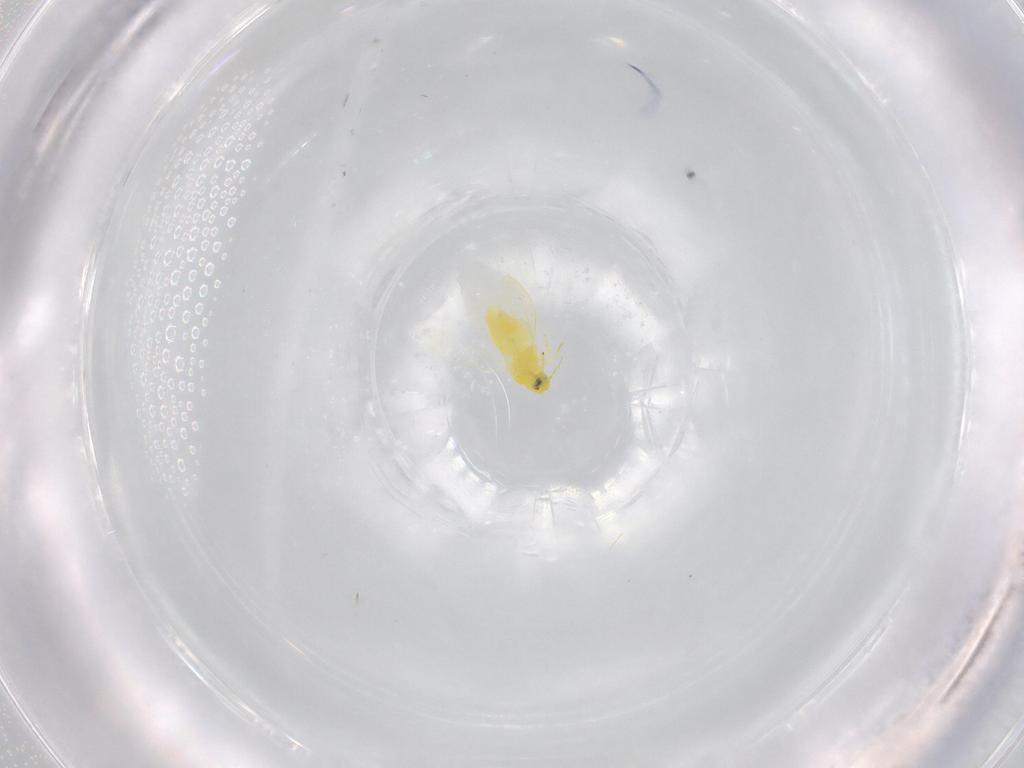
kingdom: Animalia
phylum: Arthropoda
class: Insecta
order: Hemiptera
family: Aleyrodidae
